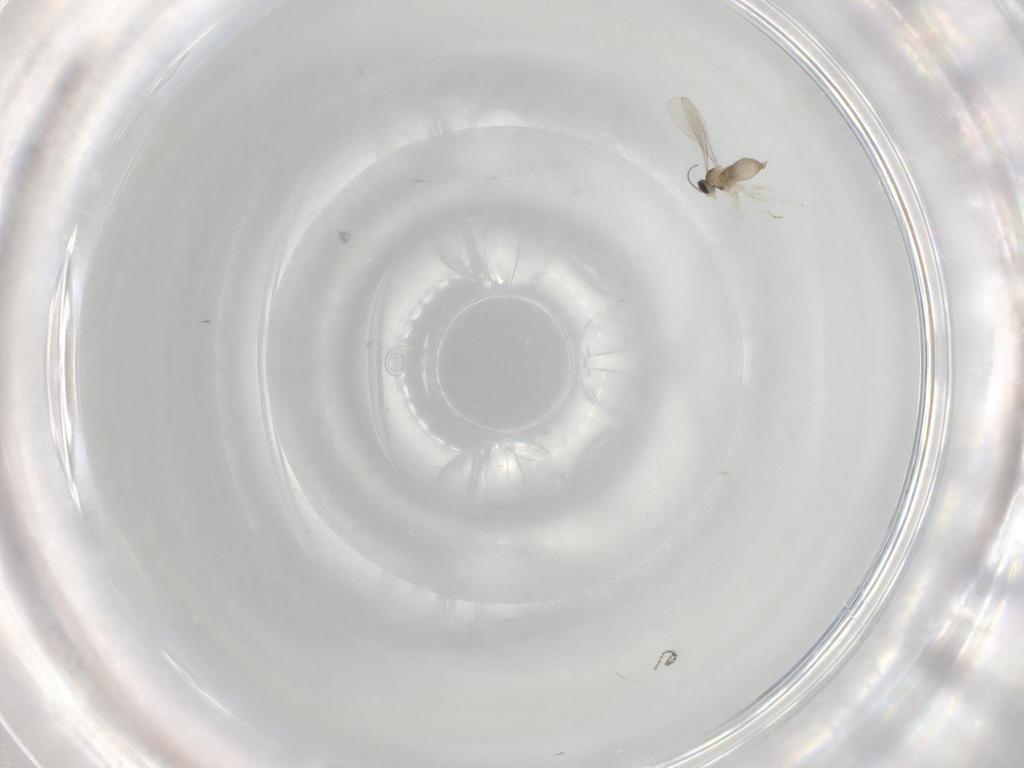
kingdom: Animalia
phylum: Arthropoda
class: Insecta
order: Diptera
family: Cecidomyiidae
